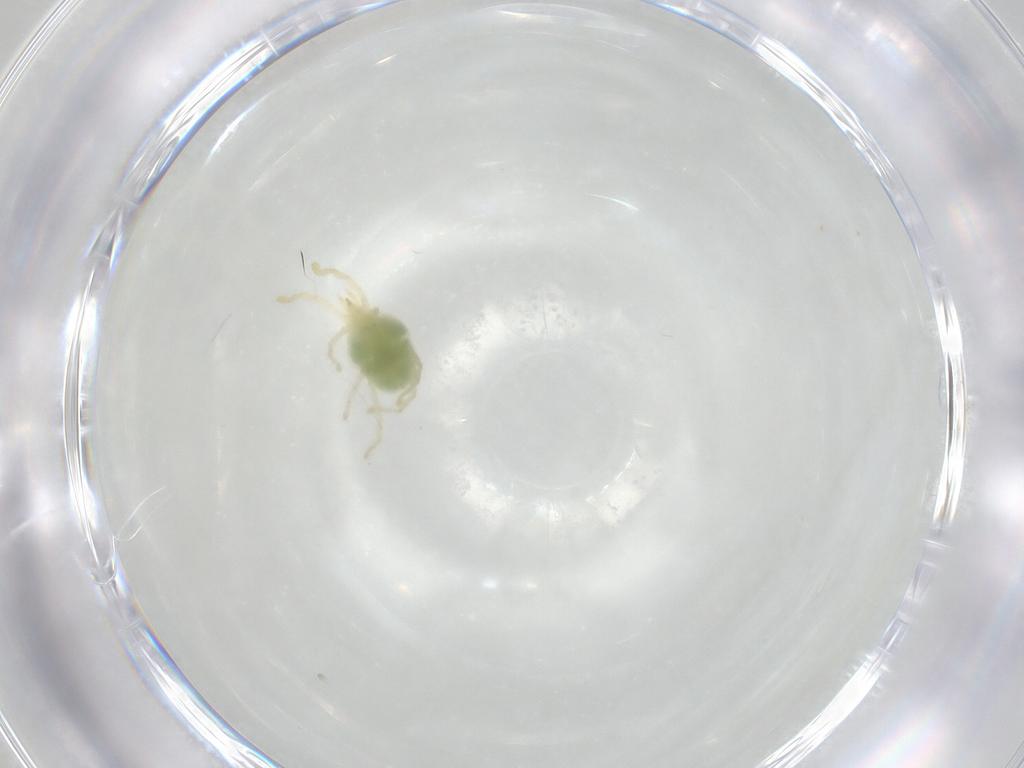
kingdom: Animalia
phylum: Arthropoda
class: Arachnida
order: Trombidiformes
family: Erythraeidae
